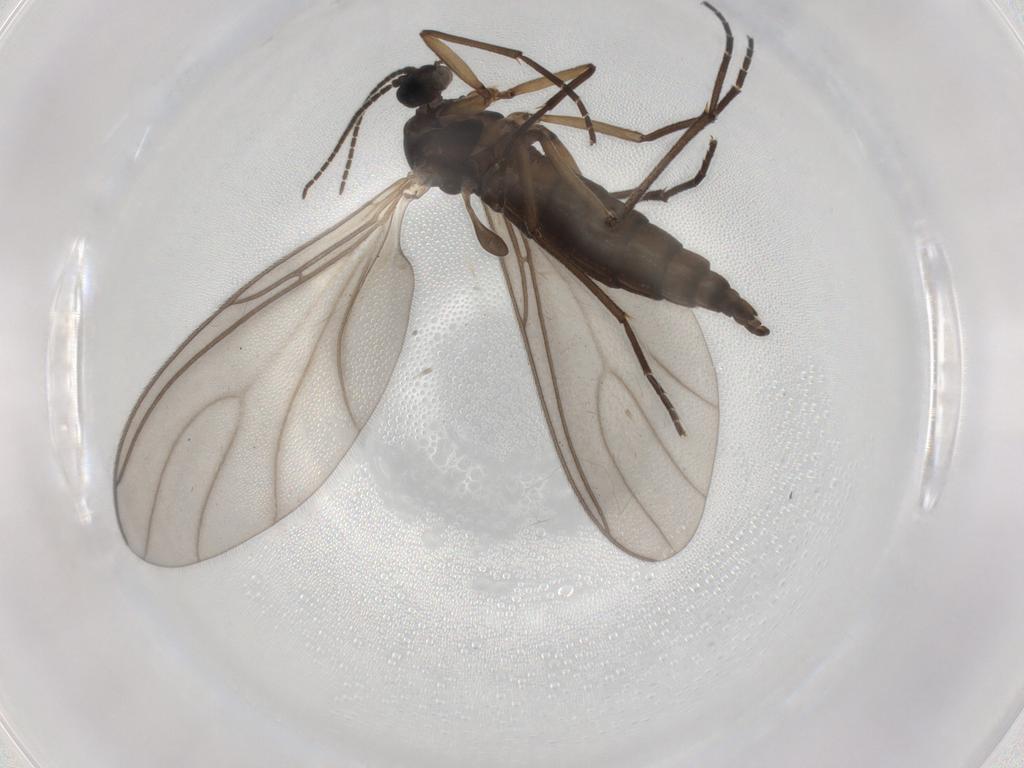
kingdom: Animalia
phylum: Arthropoda
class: Insecta
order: Diptera
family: Sciaridae
